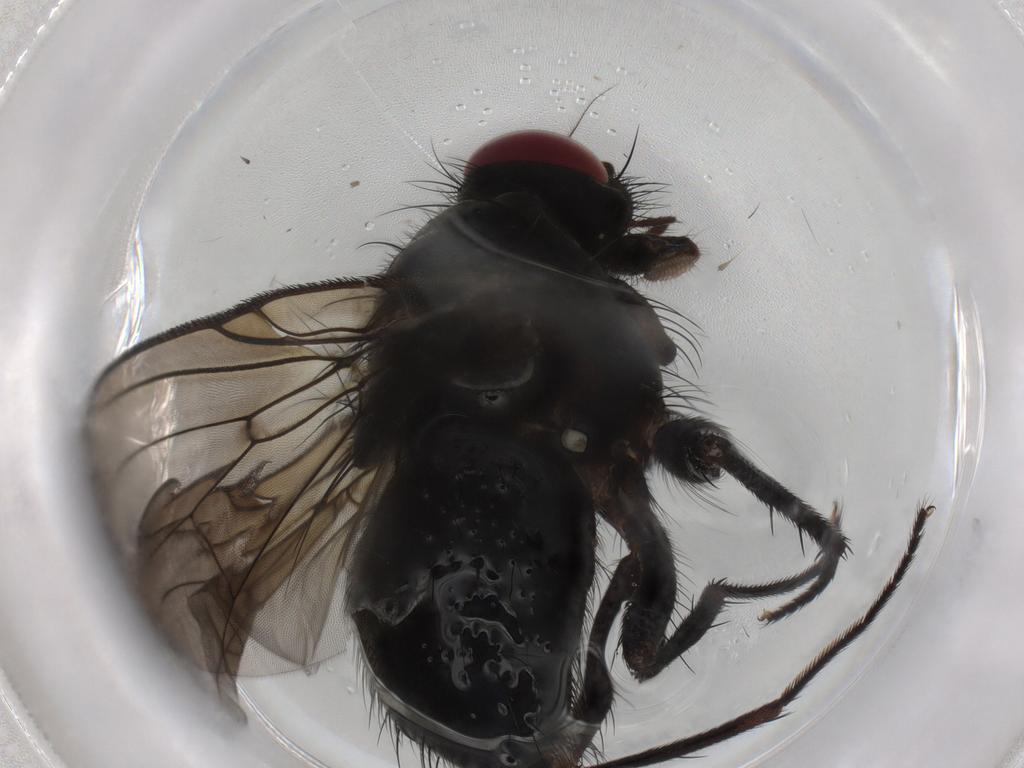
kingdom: Animalia
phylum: Arthropoda
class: Insecta
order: Diptera
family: Muscidae
